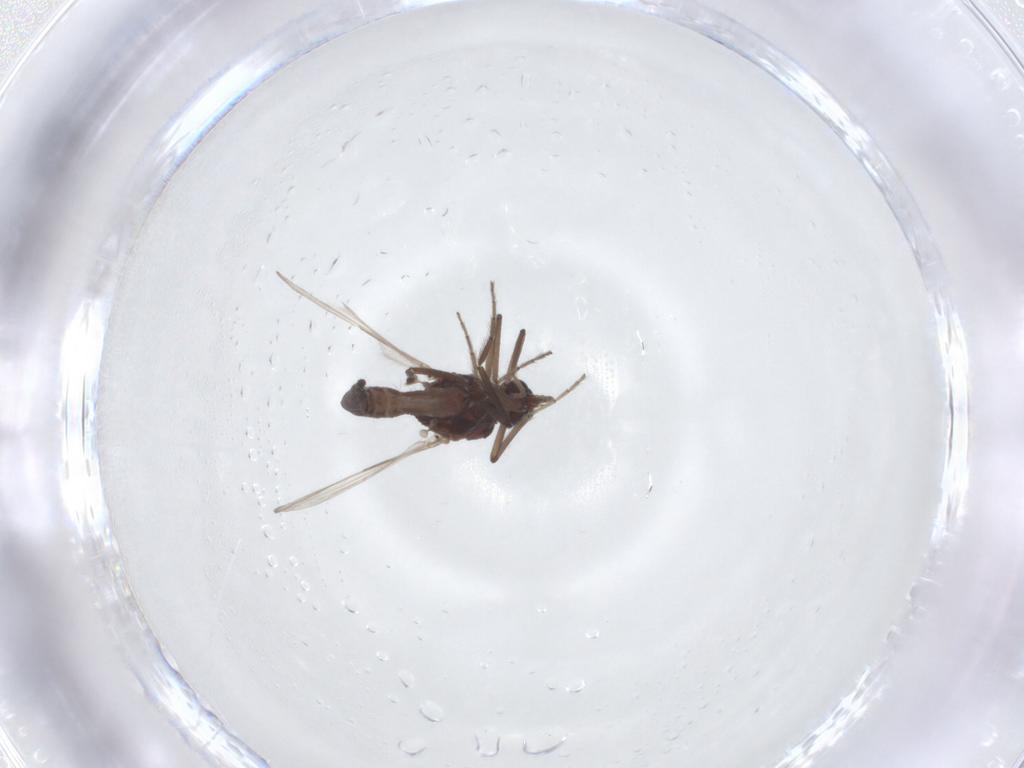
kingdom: Animalia
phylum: Arthropoda
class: Insecta
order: Diptera
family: Ceratopogonidae
